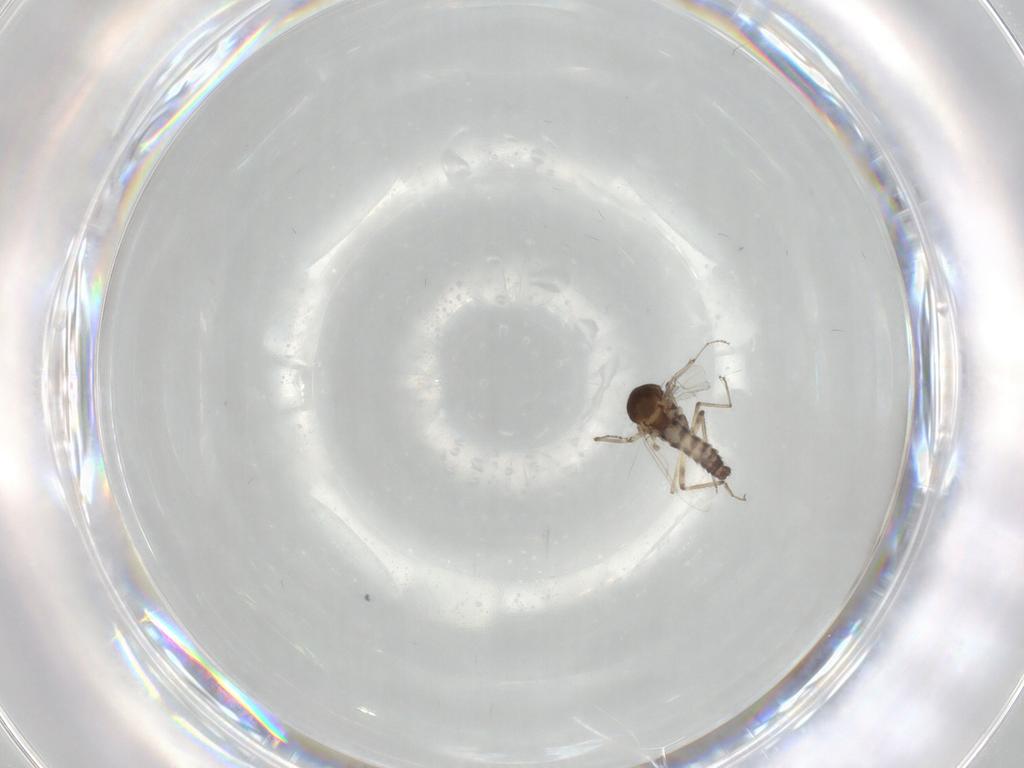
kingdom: Animalia
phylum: Arthropoda
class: Insecta
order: Diptera
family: Ceratopogonidae
